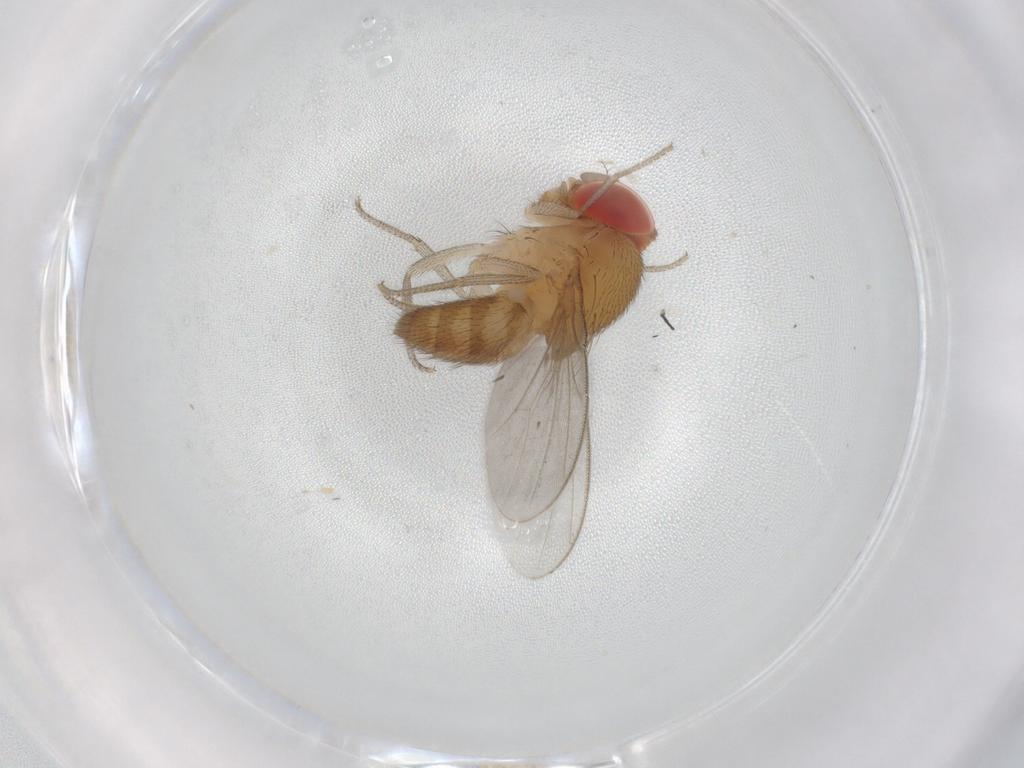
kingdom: Animalia
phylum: Arthropoda
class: Insecta
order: Diptera
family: Drosophilidae
